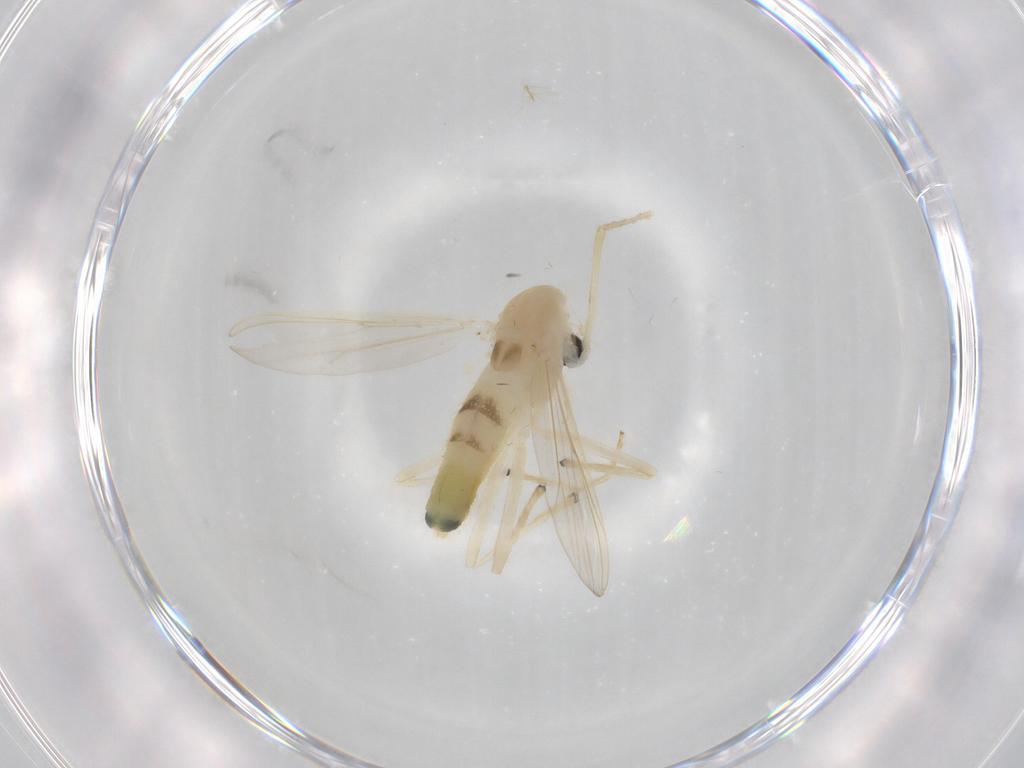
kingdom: Animalia
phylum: Arthropoda
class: Insecta
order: Diptera
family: Chironomidae
